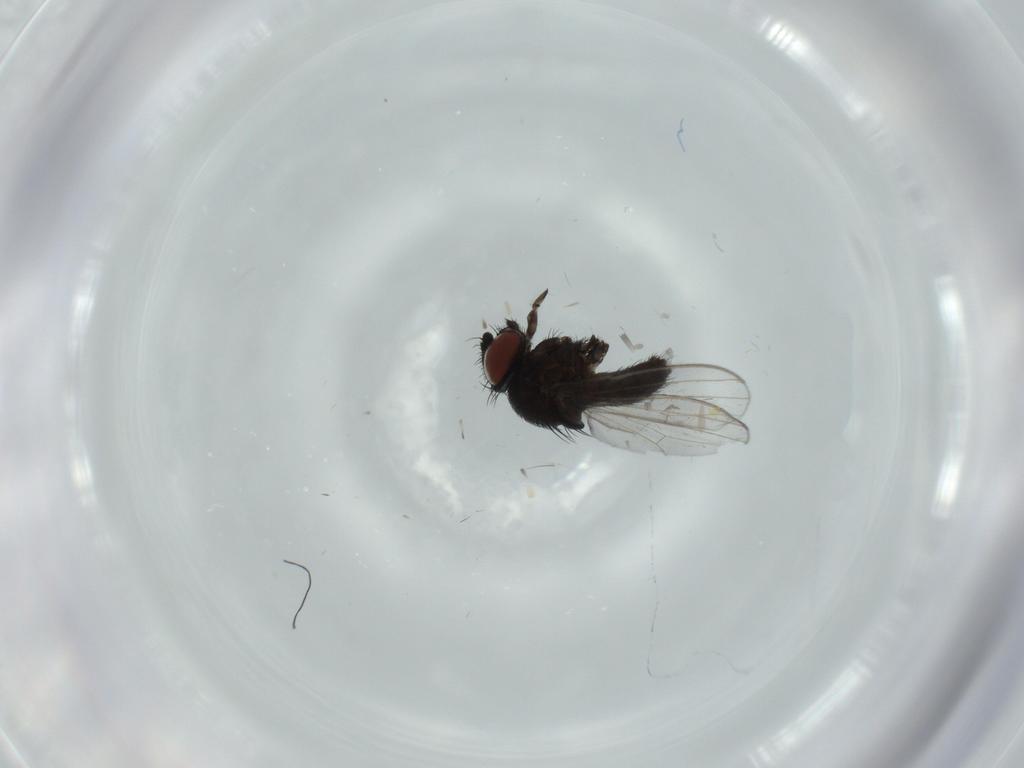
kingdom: Animalia
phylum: Arthropoda
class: Insecta
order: Diptera
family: Milichiidae
